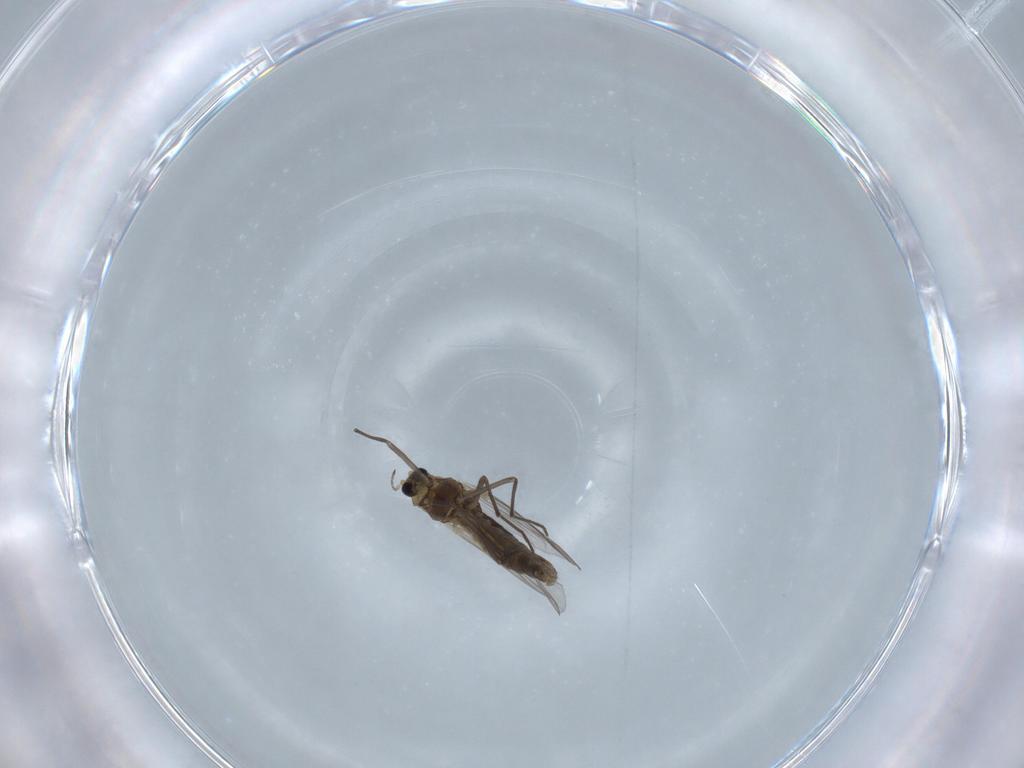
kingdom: Animalia
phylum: Arthropoda
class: Insecta
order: Diptera
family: Chironomidae
